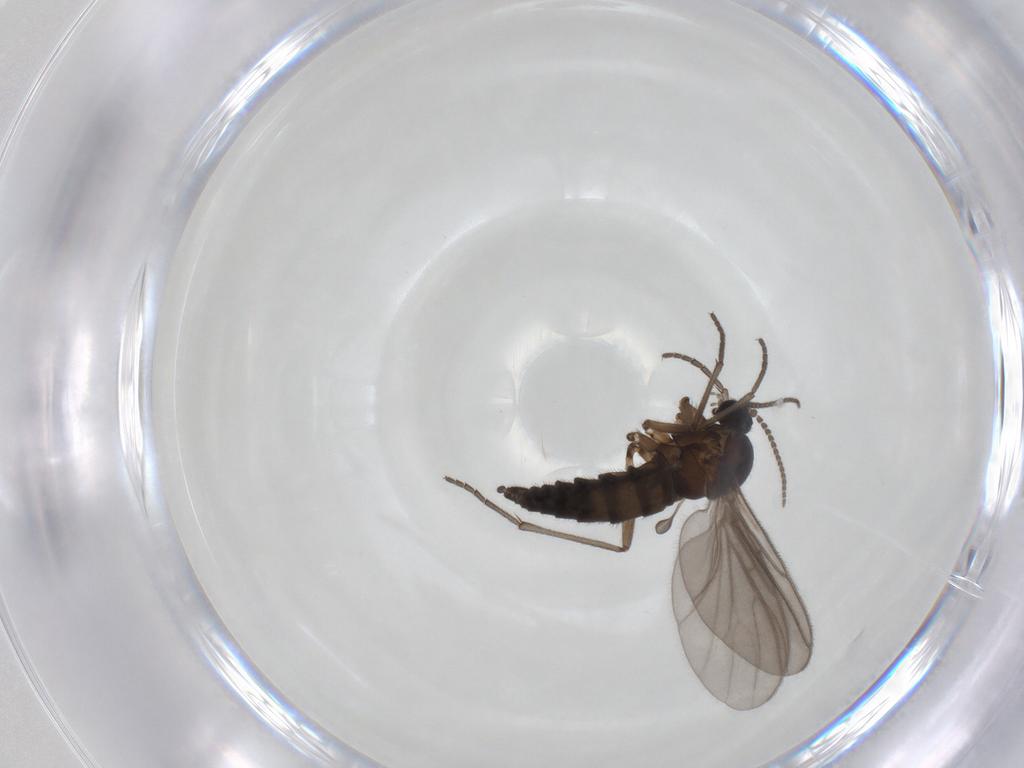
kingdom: Animalia
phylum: Arthropoda
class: Insecta
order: Diptera
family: Sciaridae
